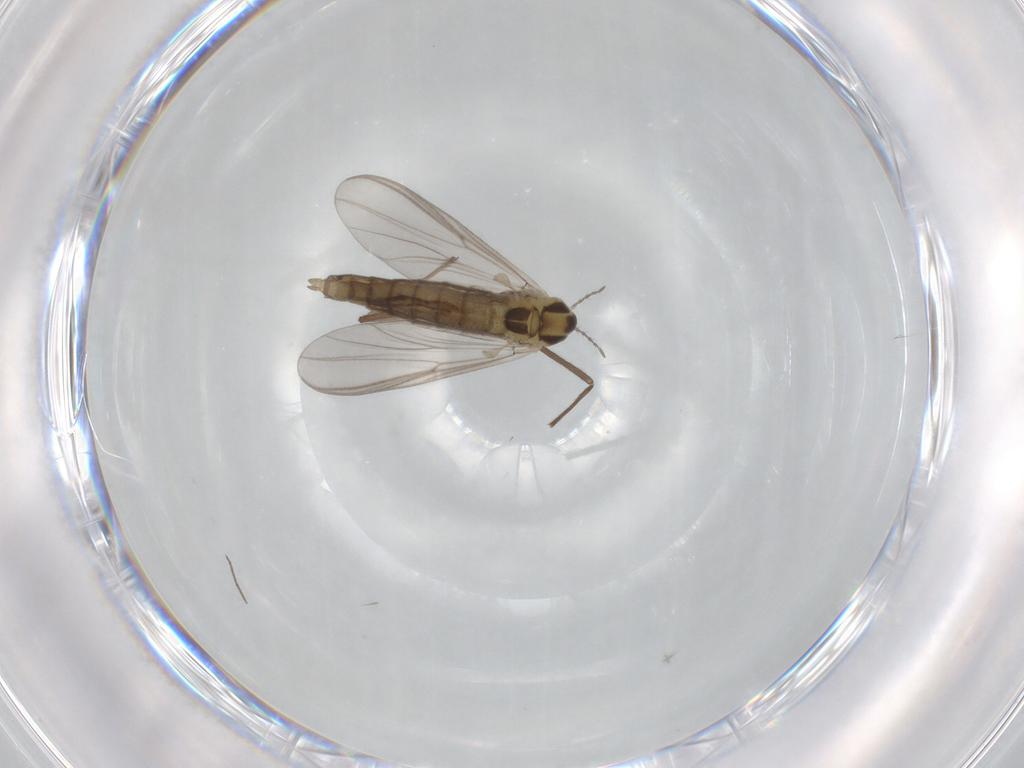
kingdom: Animalia
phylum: Arthropoda
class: Insecta
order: Diptera
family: Chironomidae
